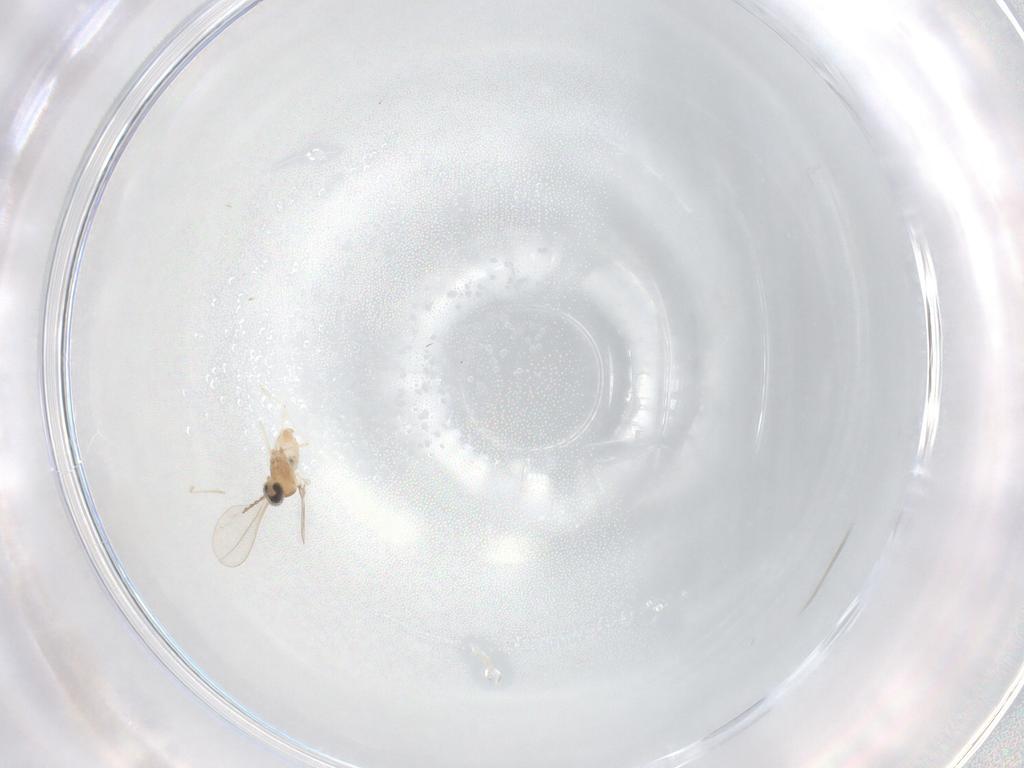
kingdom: Animalia
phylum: Arthropoda
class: Insecta
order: Diptera
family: Cecidomyiidae
